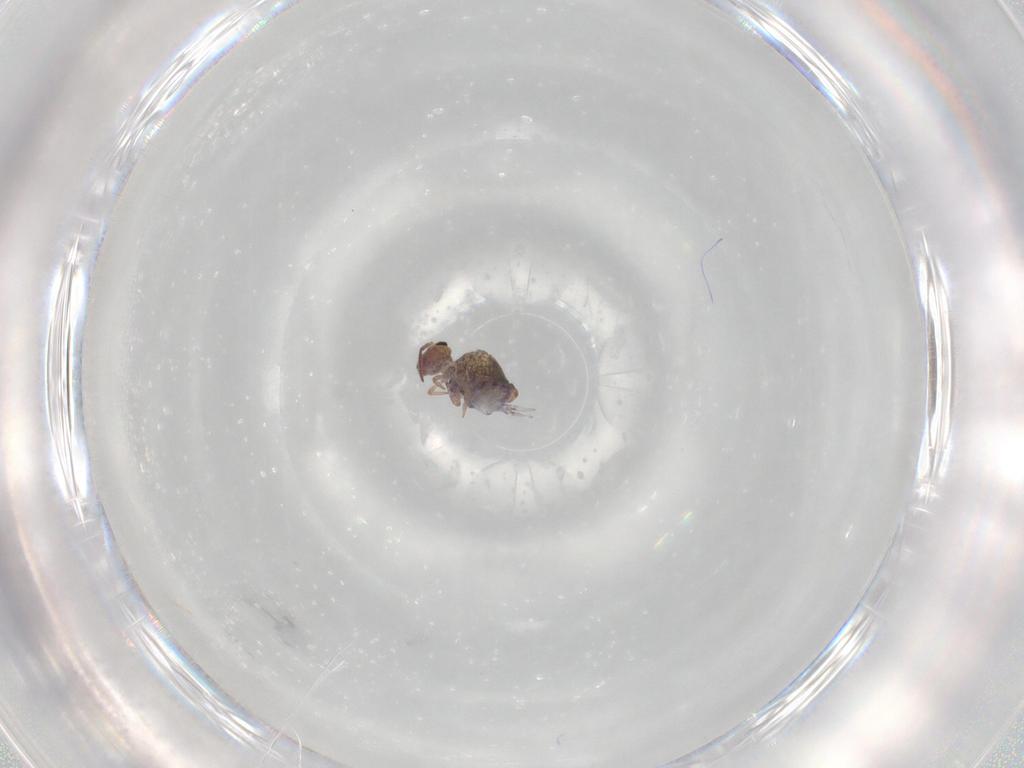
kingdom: Animalia
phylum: Arthropoda
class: Collembola
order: Symphypleona
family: Bourletiellidae
